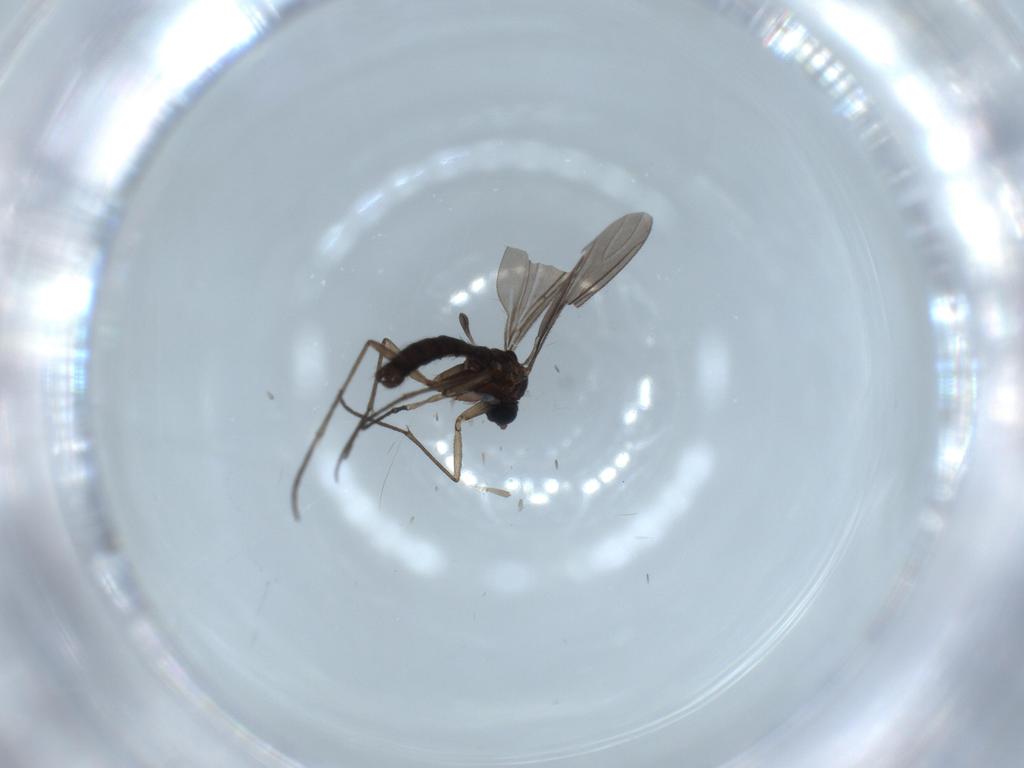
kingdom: Animalia
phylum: Arthropoda
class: Insecta
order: Diptera
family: Sciaridae
